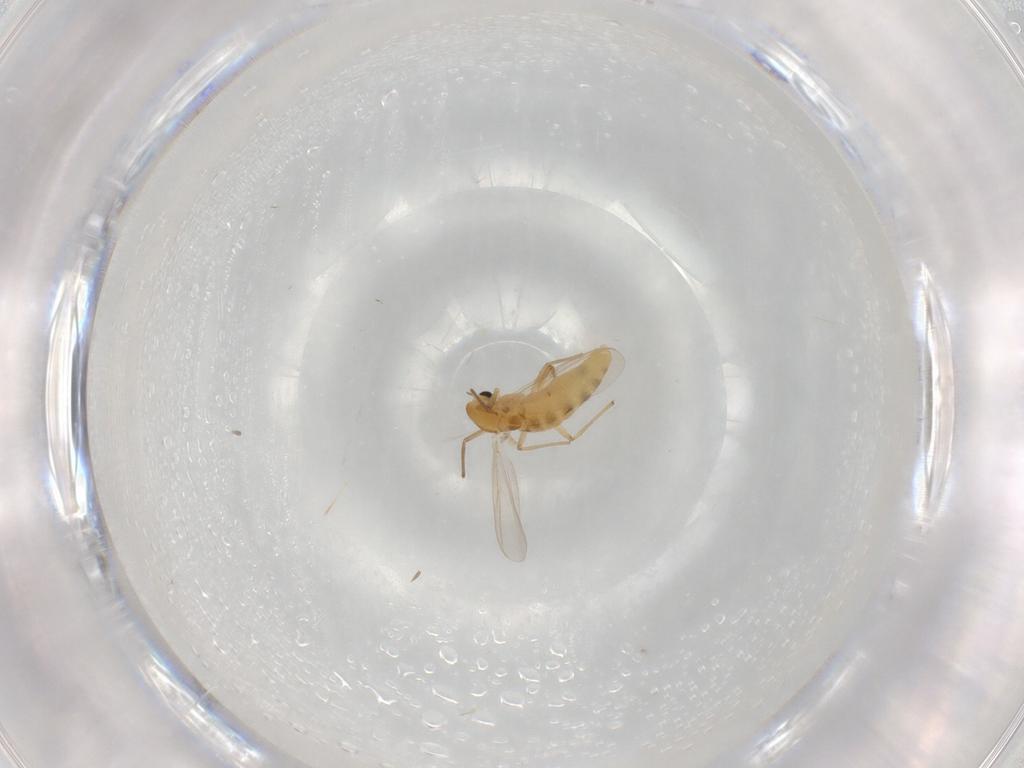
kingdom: Animalia
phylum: Arthropoda
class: Insecta
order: Diptera
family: Chironomidae
